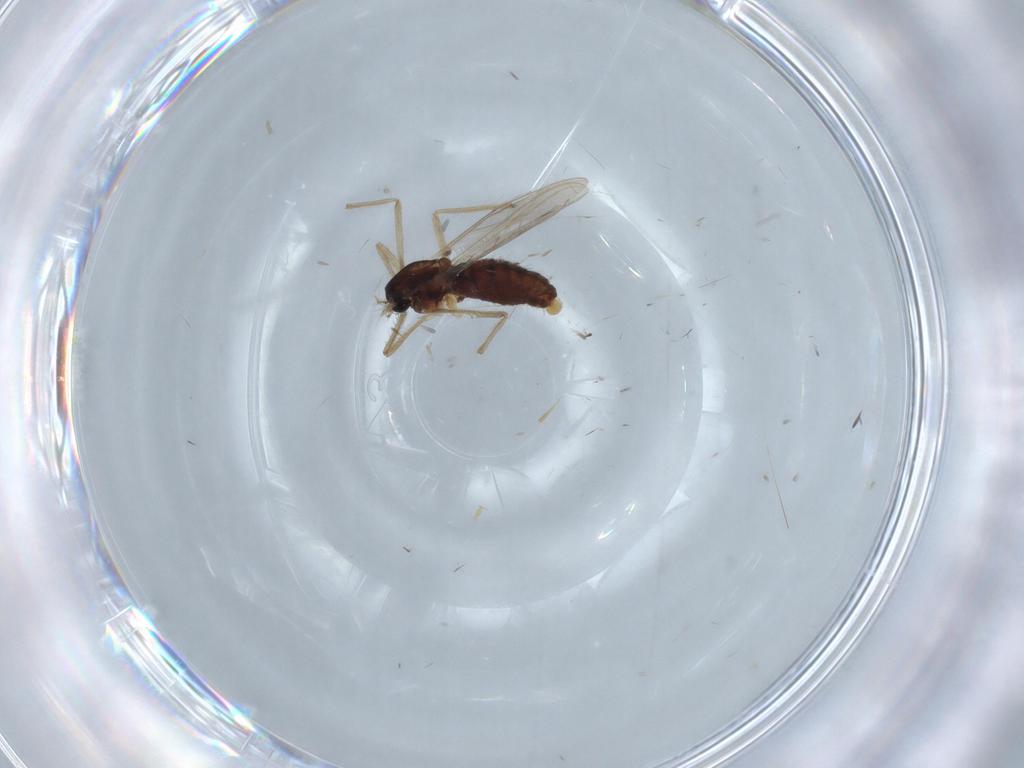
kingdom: Animalia
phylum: Arthropoda
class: Insecta
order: Diptera
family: Chironomidae
